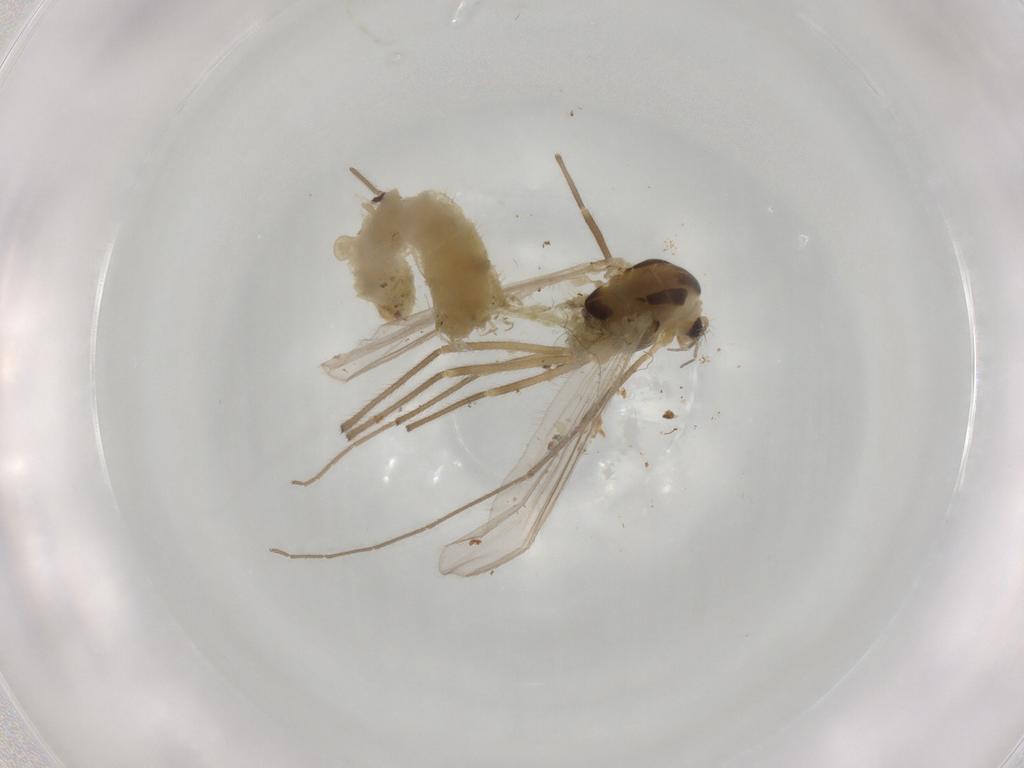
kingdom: Animalia
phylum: Arthropoda
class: Insecta
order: Diptera
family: Chironomidae
